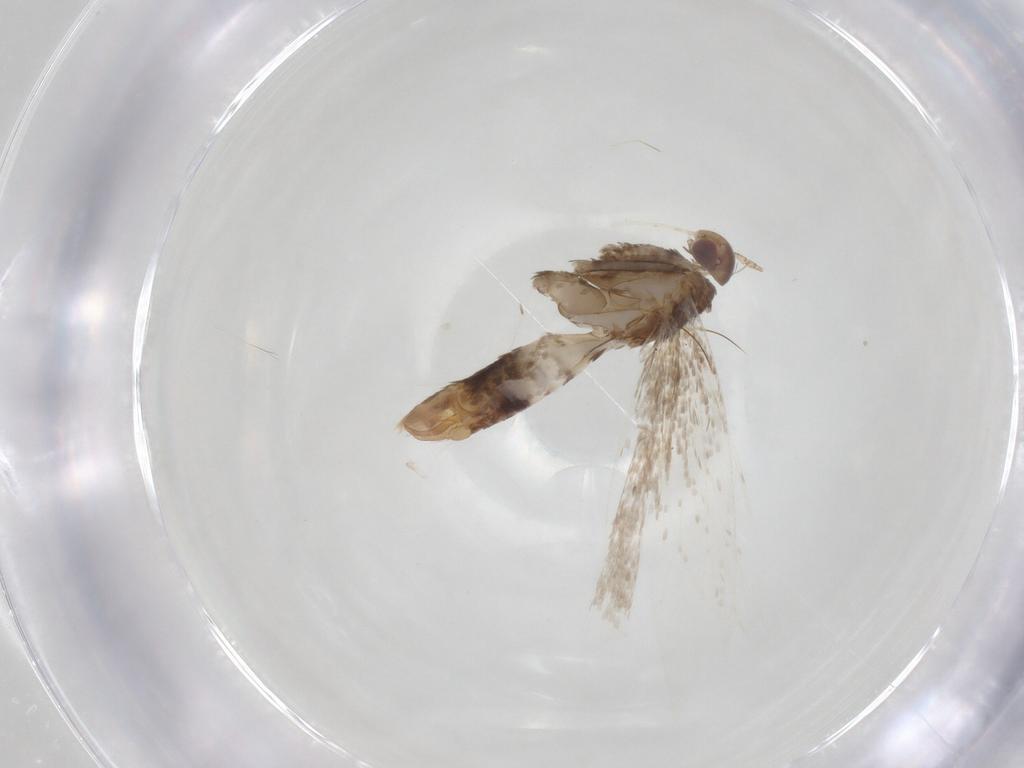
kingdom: Animalia
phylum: Arthropoda
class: Insecta
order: Lepidoptera
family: Gelechiidae
